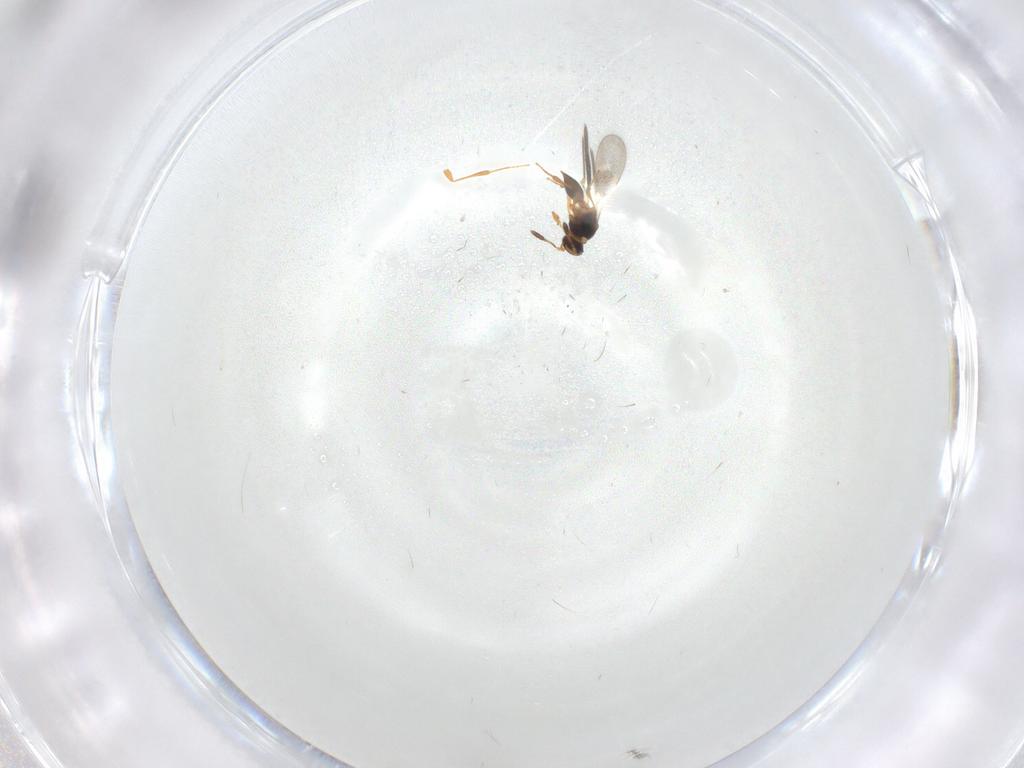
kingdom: Animalia
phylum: Arthropoda
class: Insecta
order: Hymenoptera
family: Platygastridae
